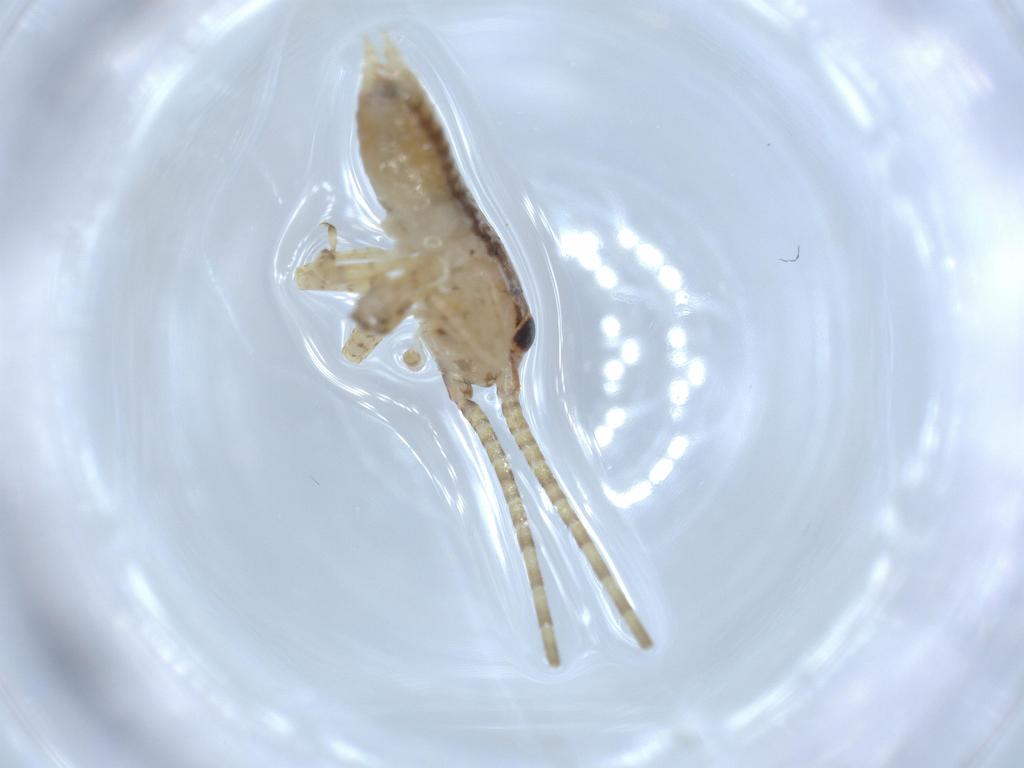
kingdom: Animalia
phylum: Arthropoda
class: Insecta
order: Orthoptera
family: Gryllidae
